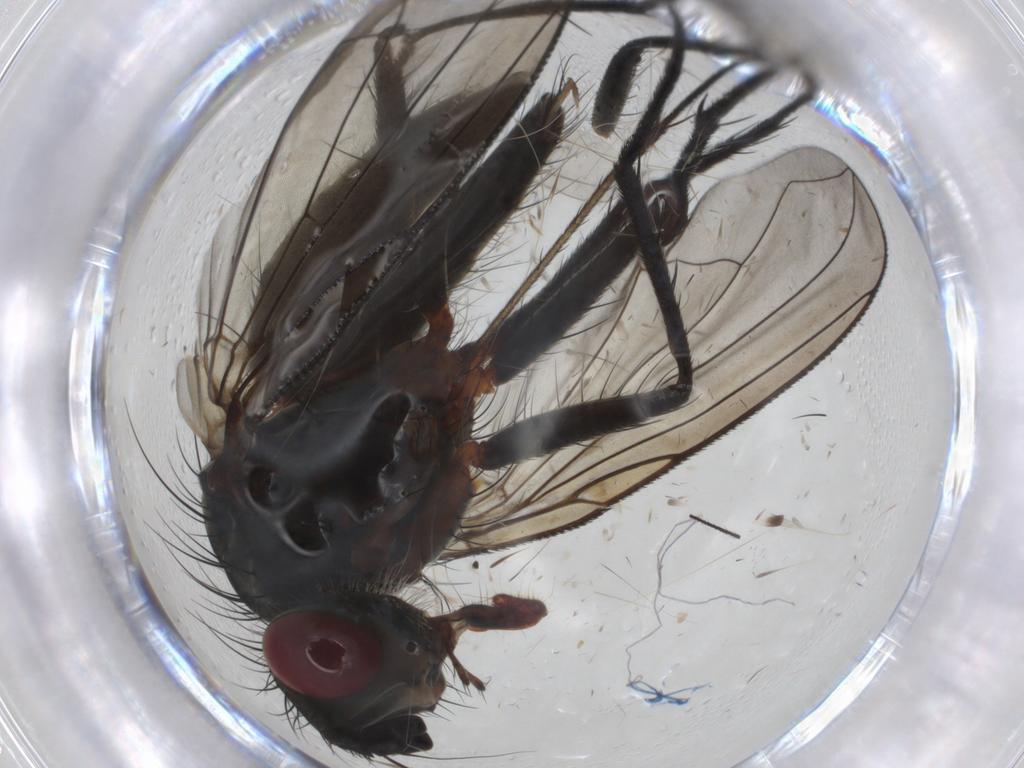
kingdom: Animalia
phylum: Arthropoda
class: Insecta
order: Diptera
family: Tachinidae
